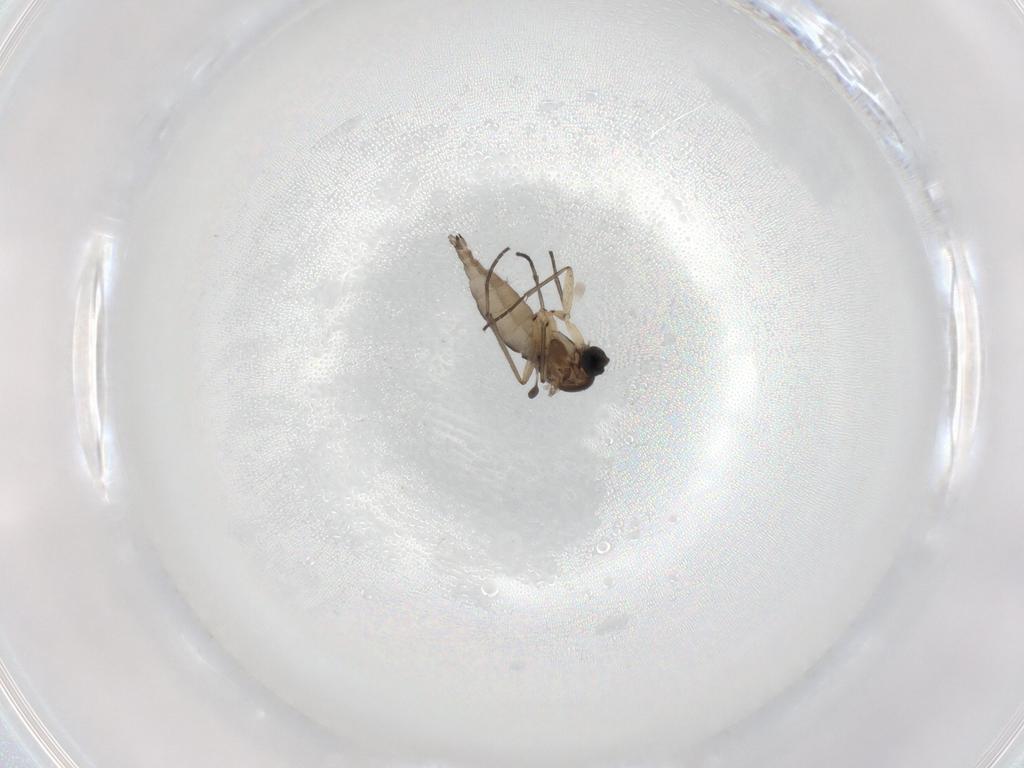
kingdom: Animalia
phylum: Arthropoda
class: Insecta
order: Diptera
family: Sciaridae
